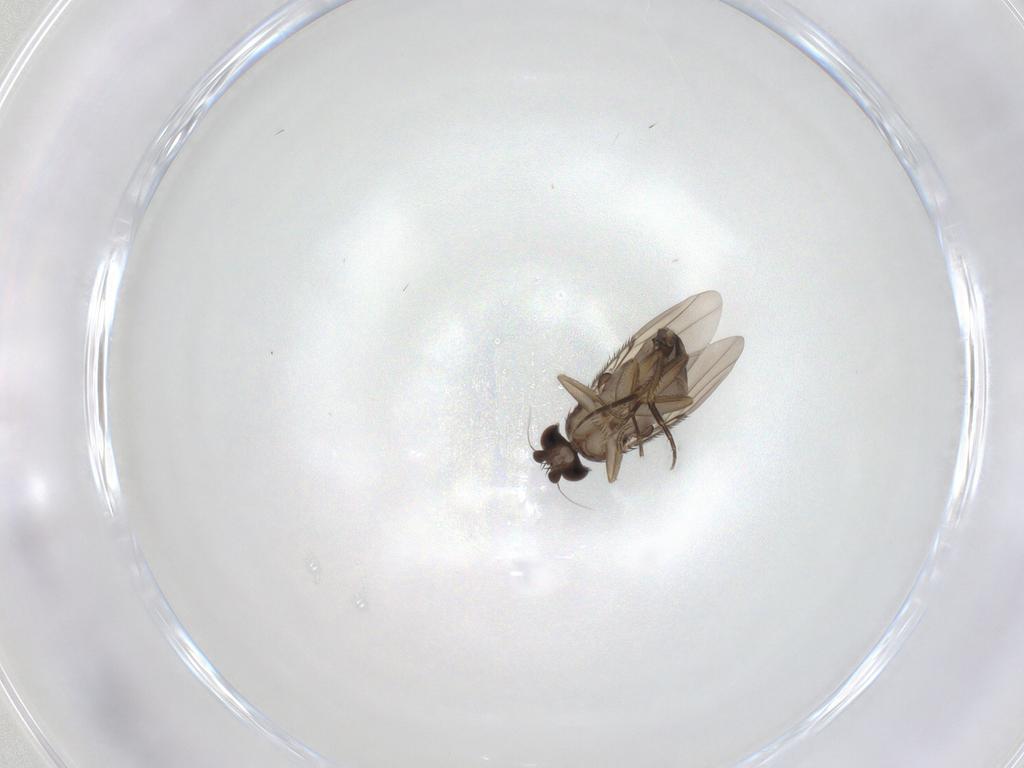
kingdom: Animalia
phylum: Arthropoda
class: Insecta
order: Diptera
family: Phoridae
